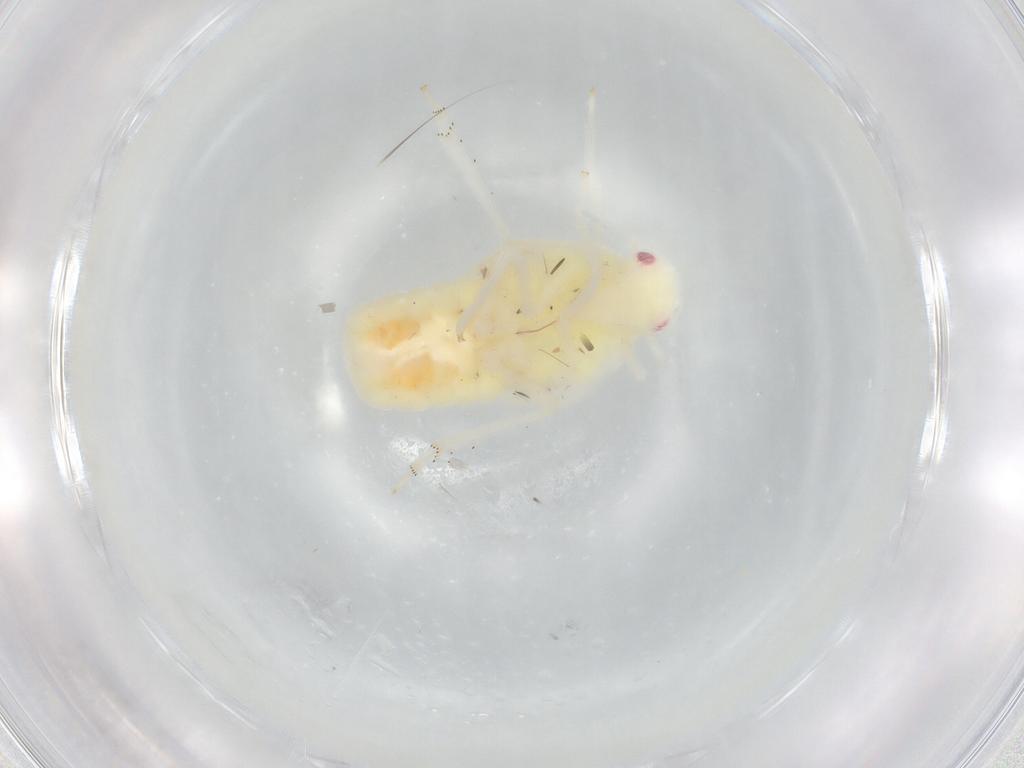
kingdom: Animalia
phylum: Arthropoda
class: Insecta
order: Hemiptera
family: Flatidae
